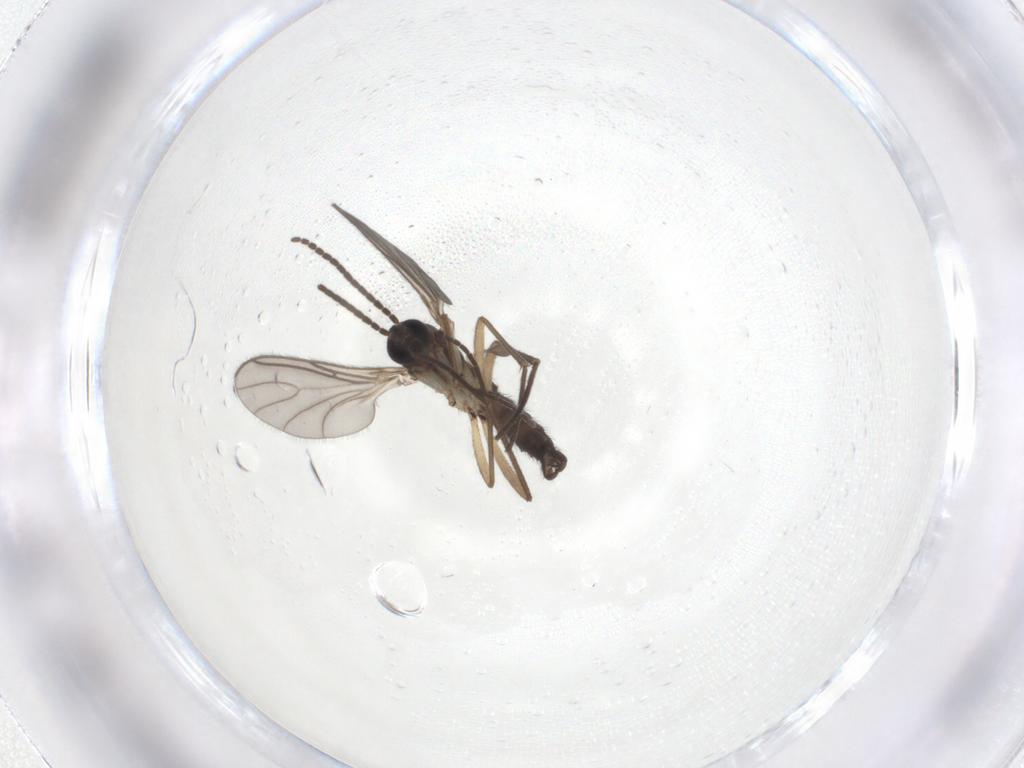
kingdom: Animalia
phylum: Arthropoda
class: Insecta
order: Diptera
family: Sciaridae
